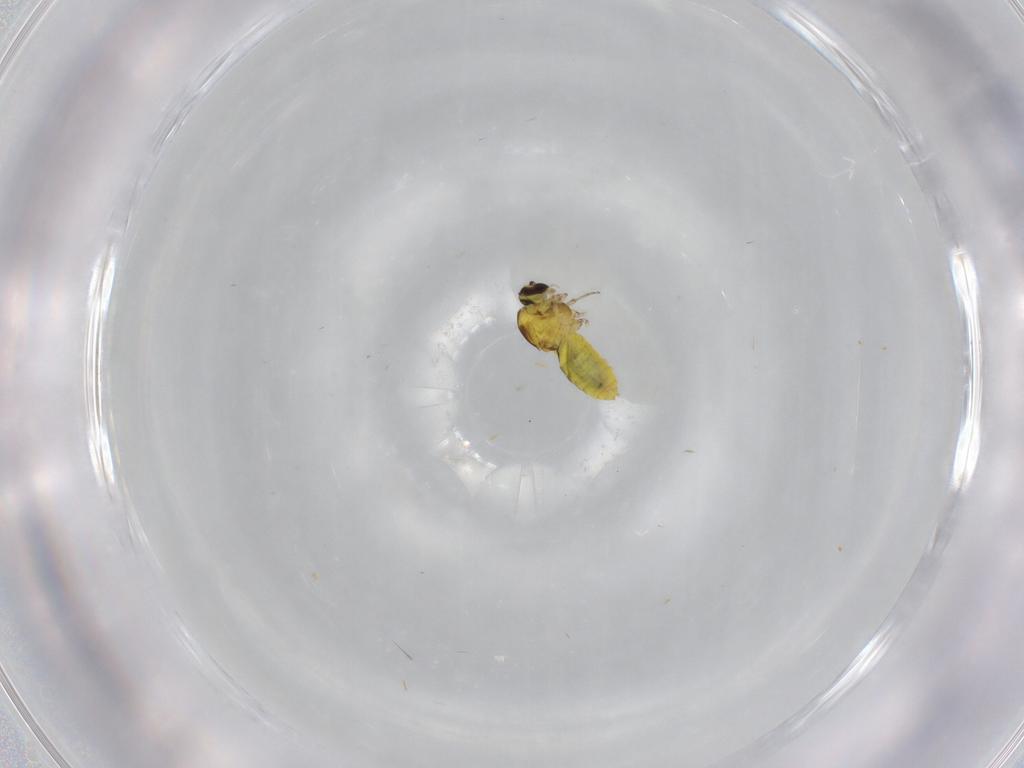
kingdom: Animalia
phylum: Arthropoda
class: Insecta
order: Diptera
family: Ceratopogonidae
